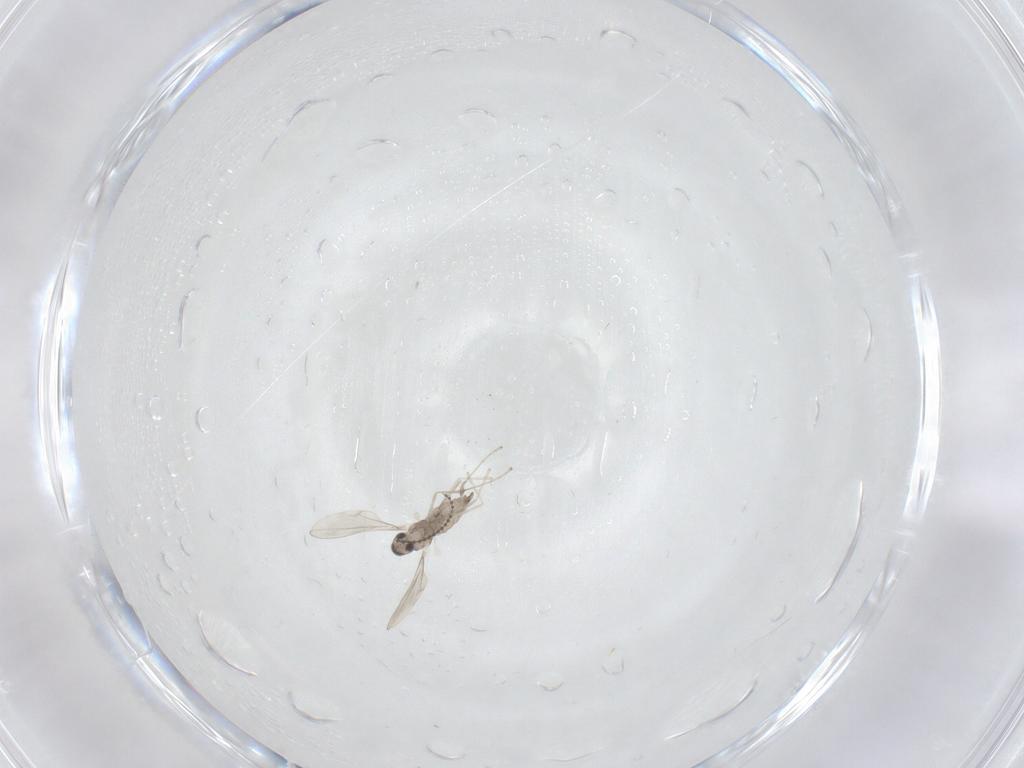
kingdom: Animalia
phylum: Arthropoda
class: Insecta
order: Diptera
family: Cecidomyiidae
